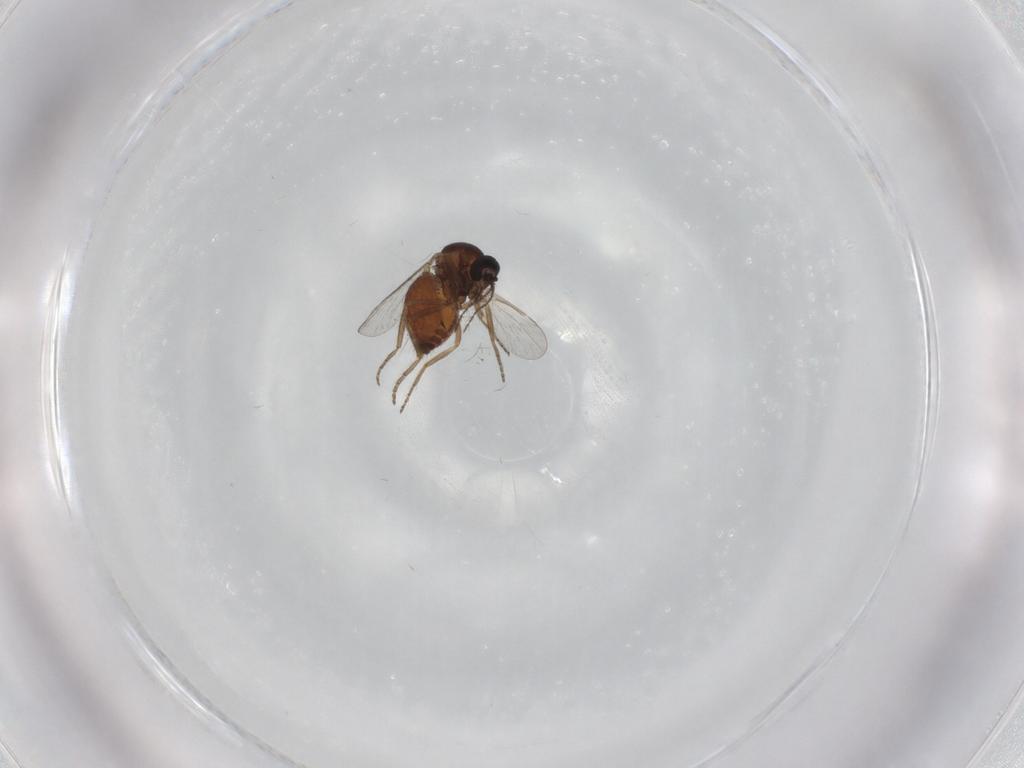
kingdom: Animalia
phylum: Arthropoda
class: Insecta
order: Diptera
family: Ceratopogonidae
